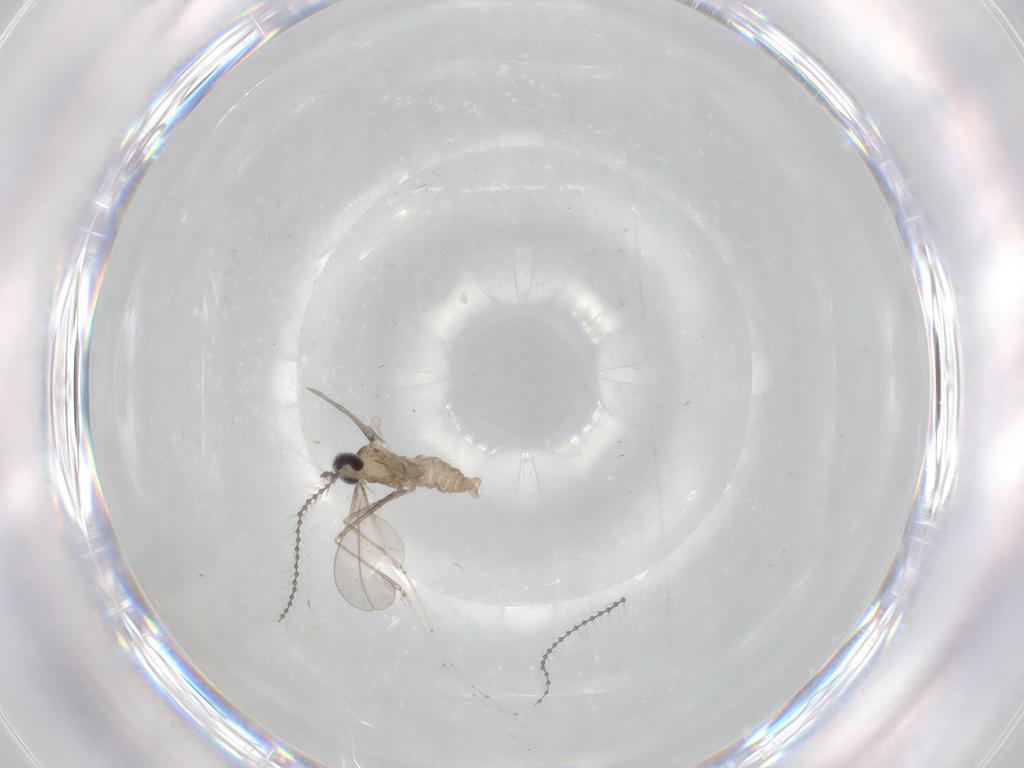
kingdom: Animalia
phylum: Arthropoda
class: Insecta
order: Diptera
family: Cecidomyiidae
